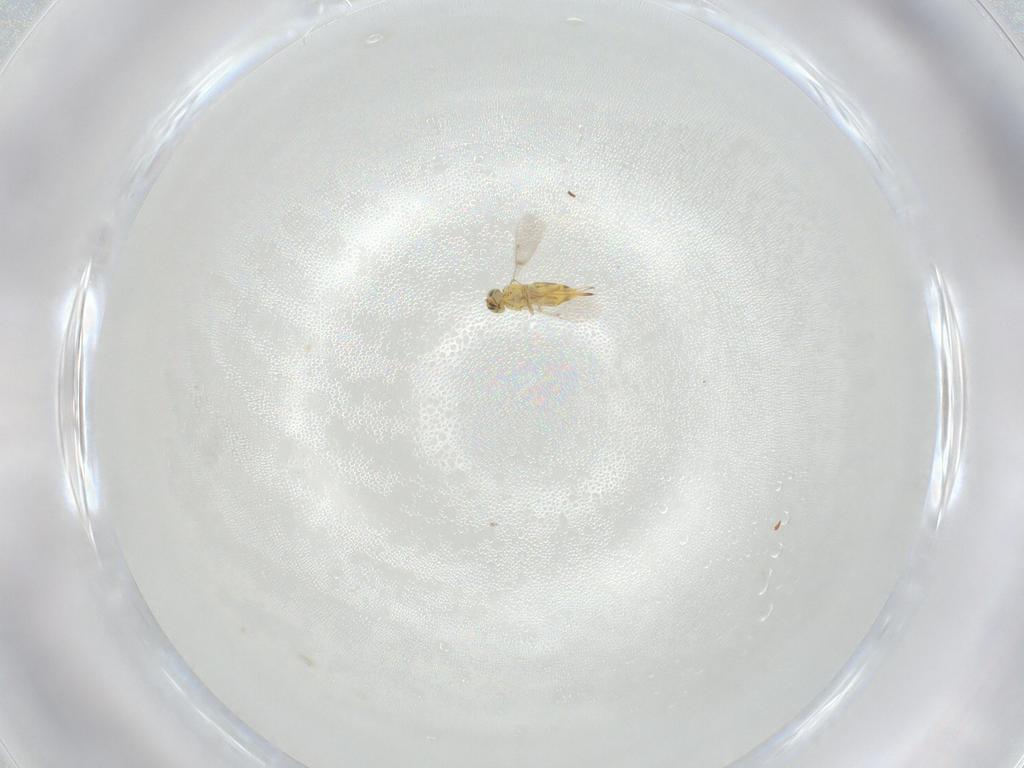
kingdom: Animalia
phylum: Arthropoda
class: Insecta
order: Hymenoptera
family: Aphelinidae
